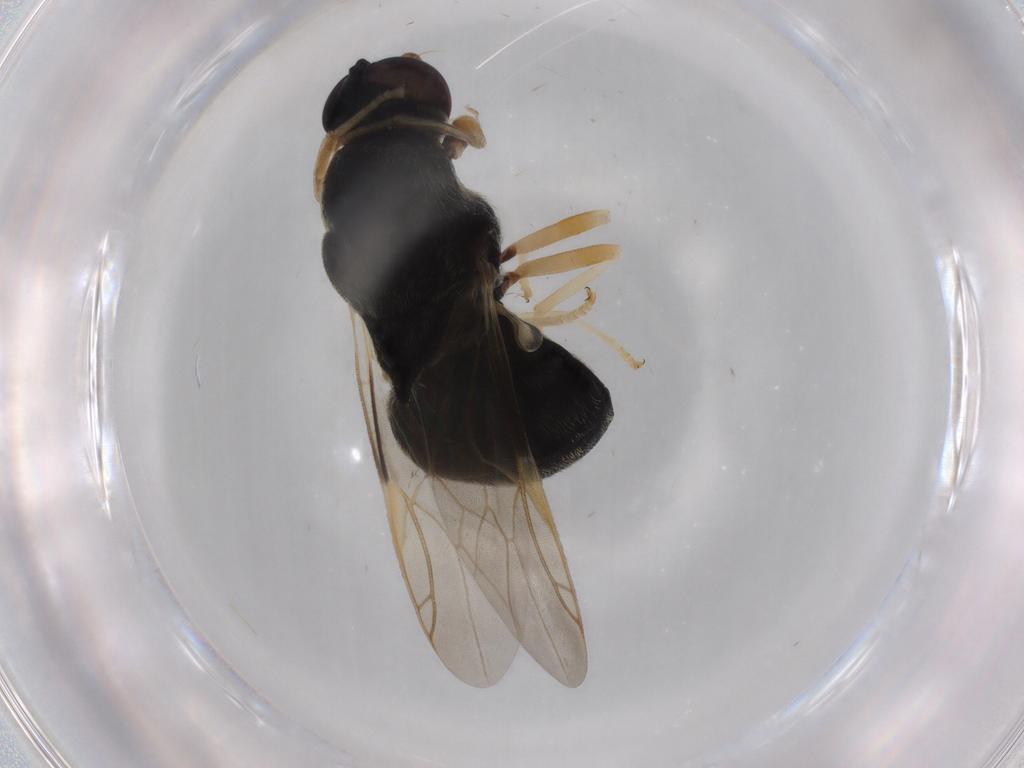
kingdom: Animalia
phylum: Arthropoda
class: Insecta
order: Diptera
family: Stratiomyidae
